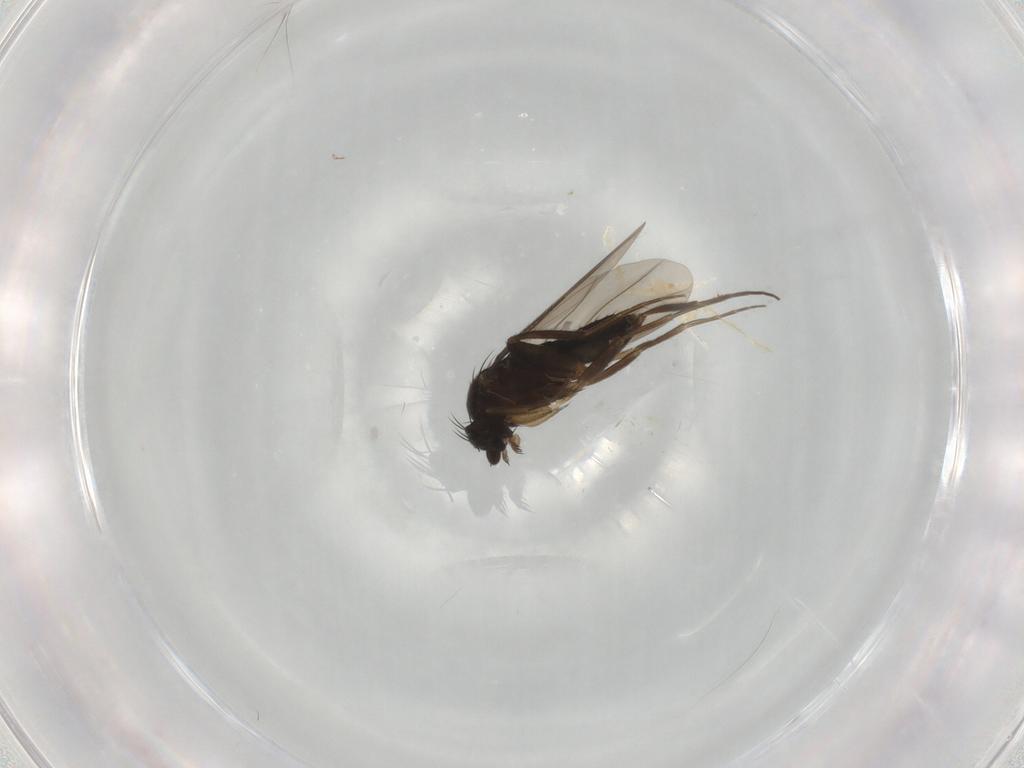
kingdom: Animalia
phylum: Arthropoda
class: Insecta
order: Diptera
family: Phoridae
